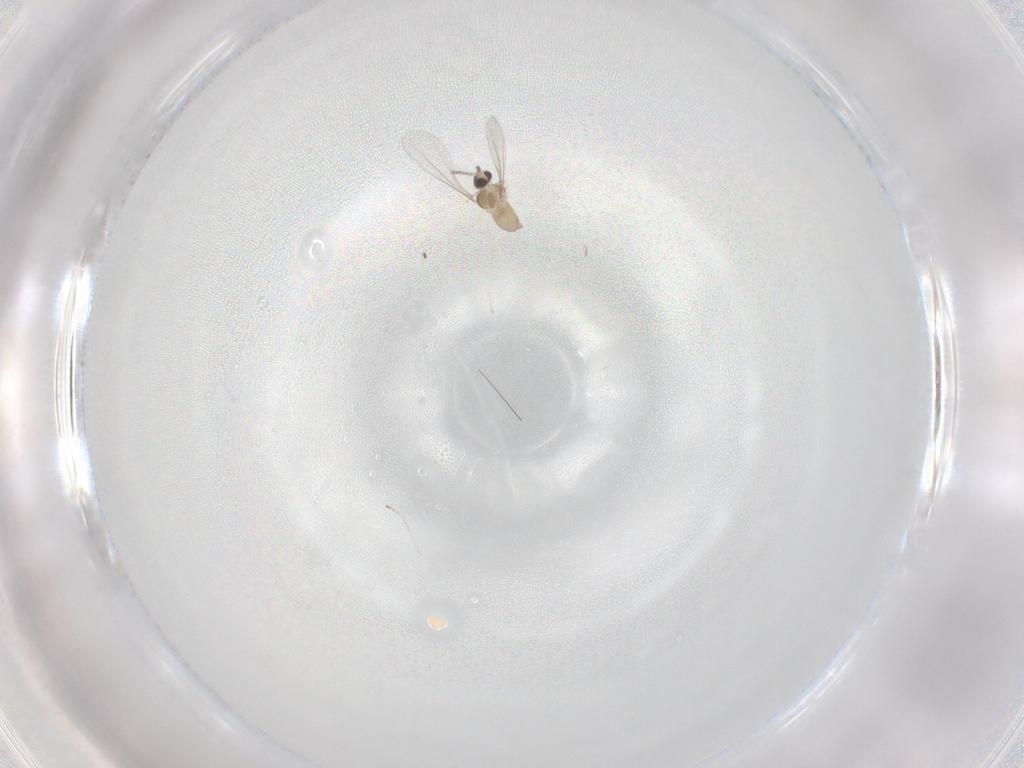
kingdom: Animalia
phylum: Arthropoda
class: Insecta
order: Diptera
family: Cecidomyiidae
